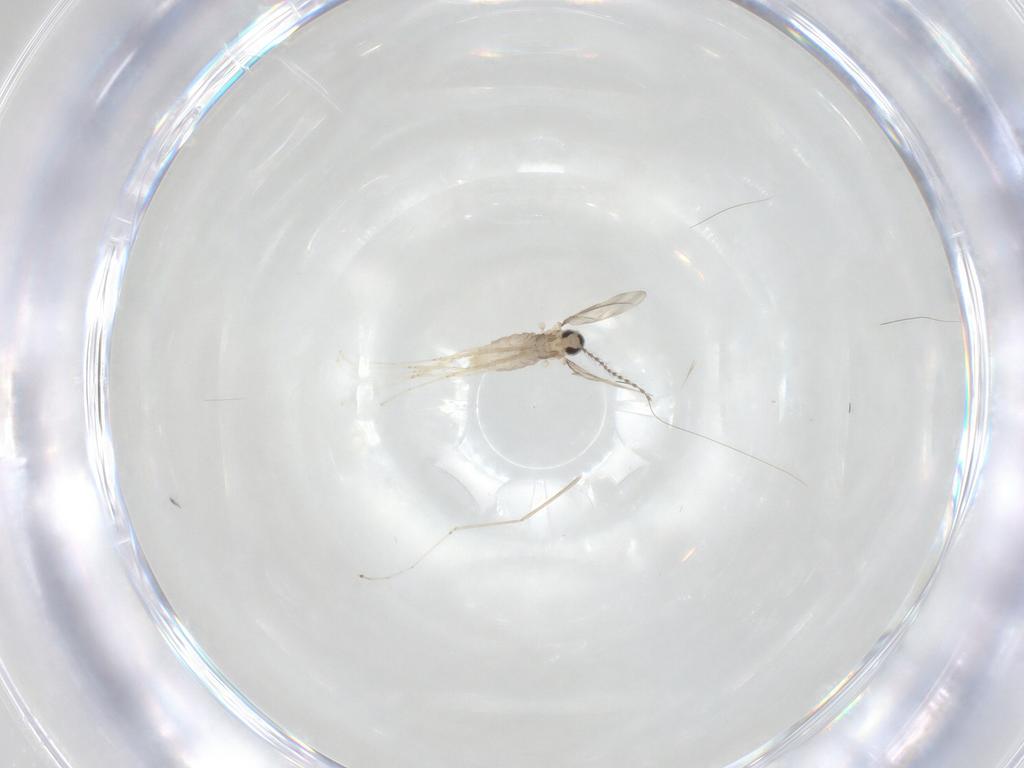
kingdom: Animalia
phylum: Arthropoda
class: Insecta
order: Diptera
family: Cecidomyiidae
